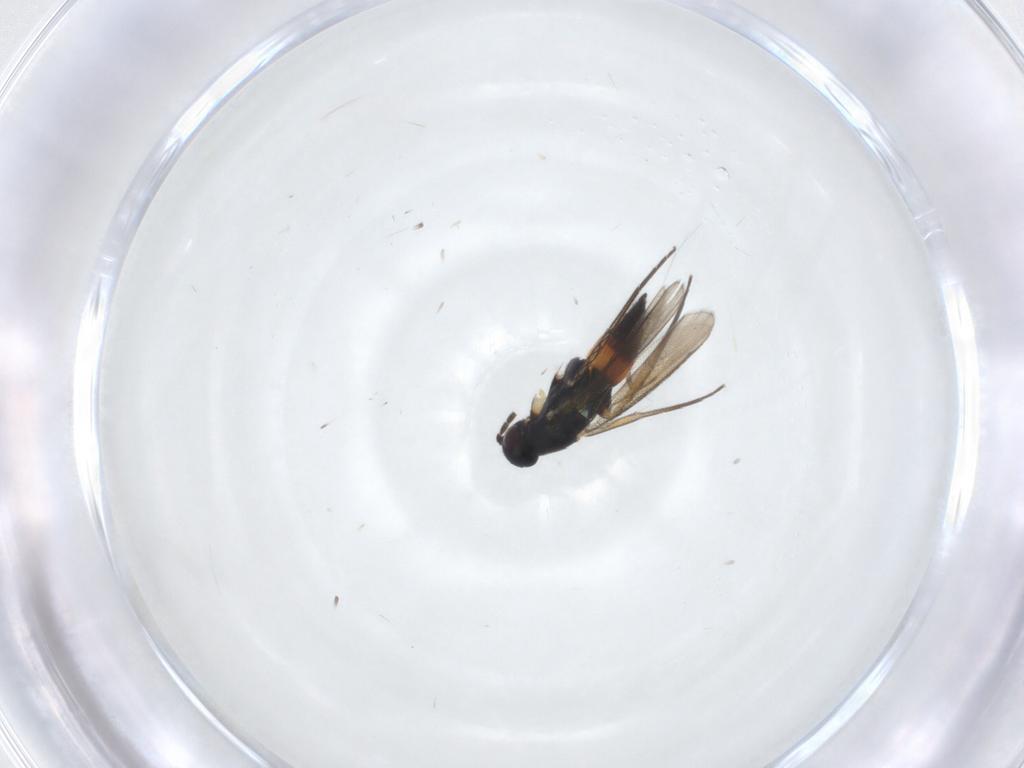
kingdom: Animalia
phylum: Arthropoda
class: Insecta
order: Hymenoptera
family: Eulophidae
